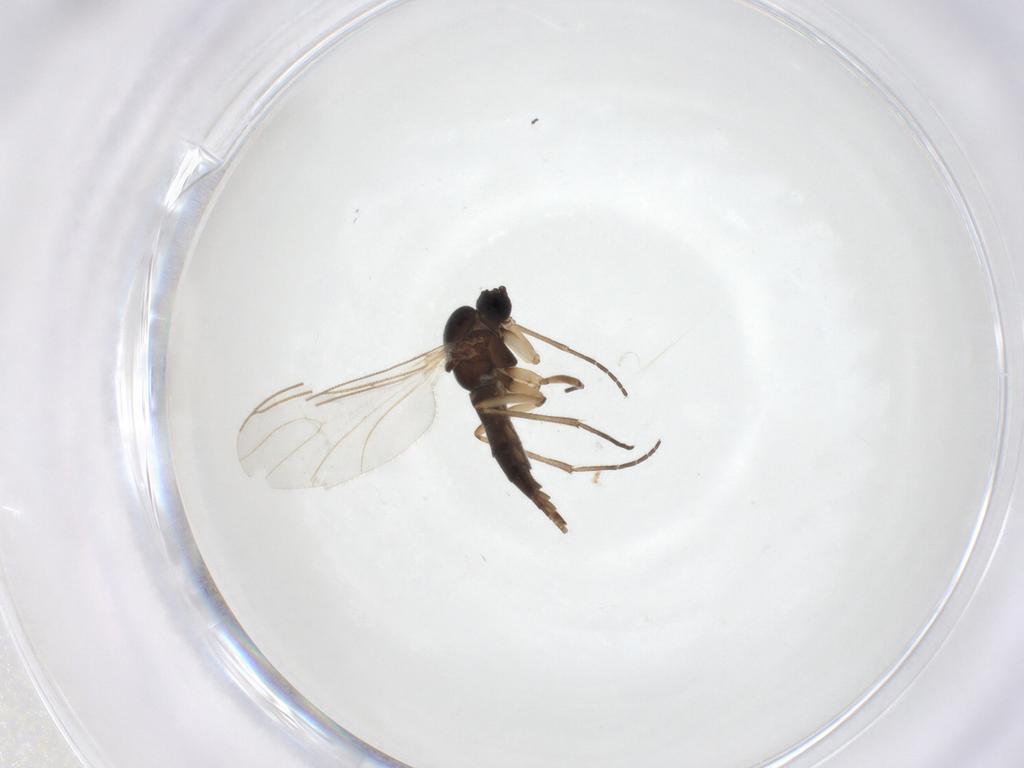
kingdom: Animalia
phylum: Arthropoda
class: Insecta
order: Diptera
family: Sciaridae
